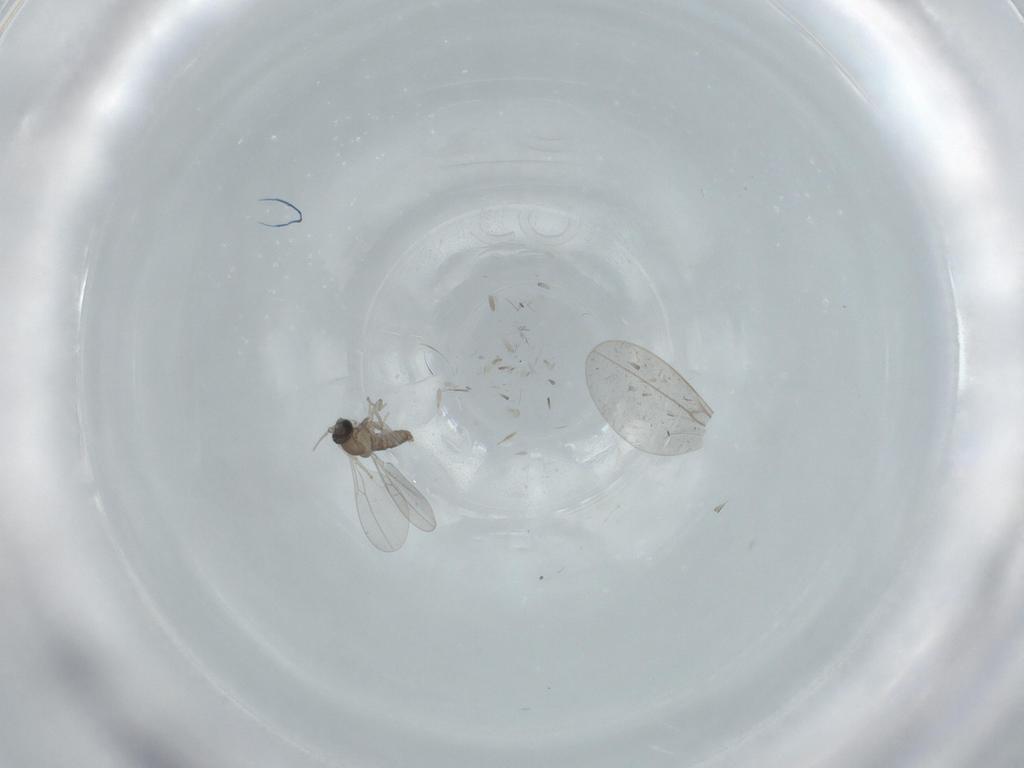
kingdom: Animalia
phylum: Arthropoda
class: Insecta
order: Diptera
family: Cecidomyiidae
